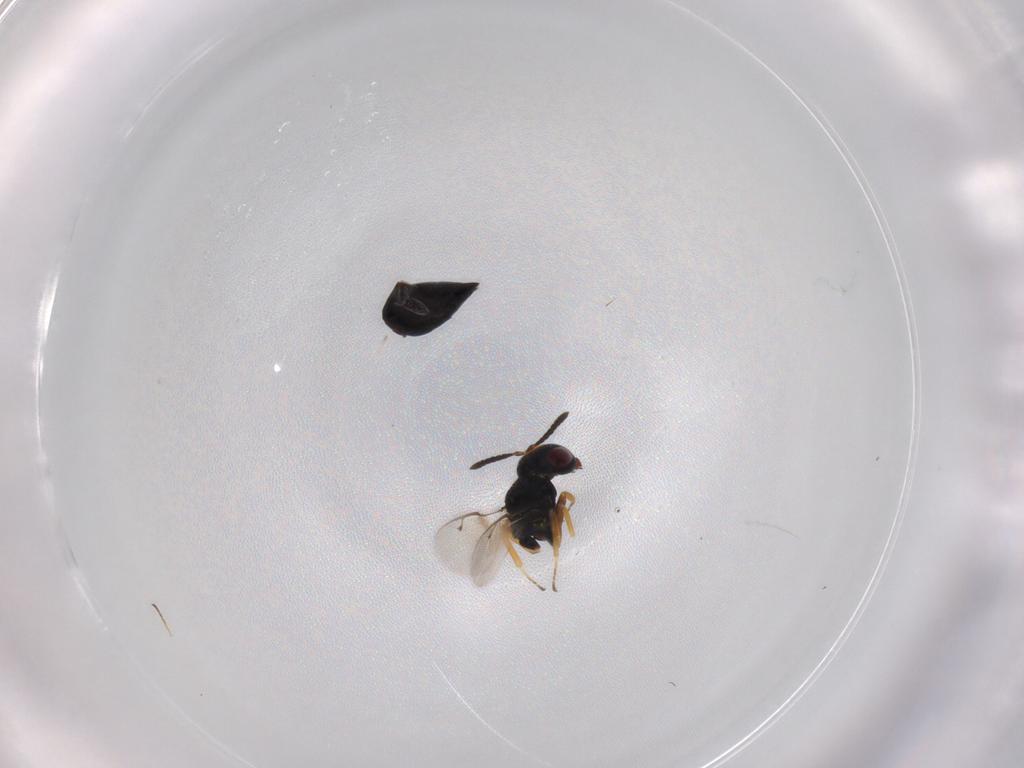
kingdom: Animalia
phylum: Arthropoda
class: Insecta
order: Hymenoptera
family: Pteromalidae
